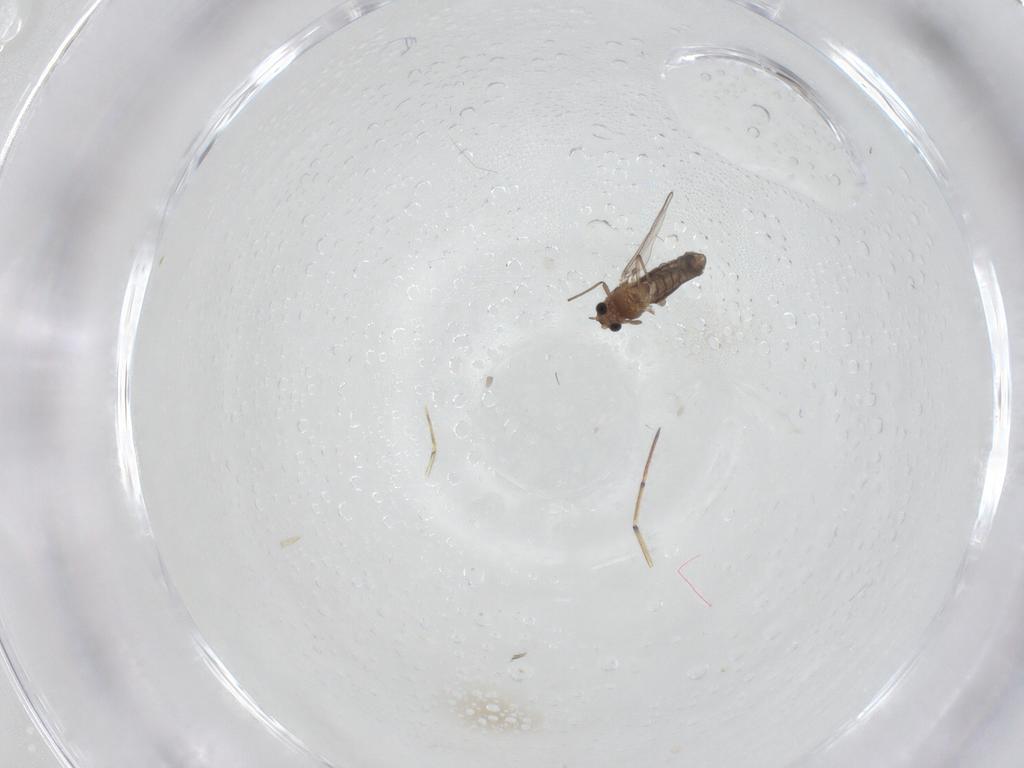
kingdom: Animalia
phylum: Arthropoda
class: Insecta
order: Diptera
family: Chironomidae
